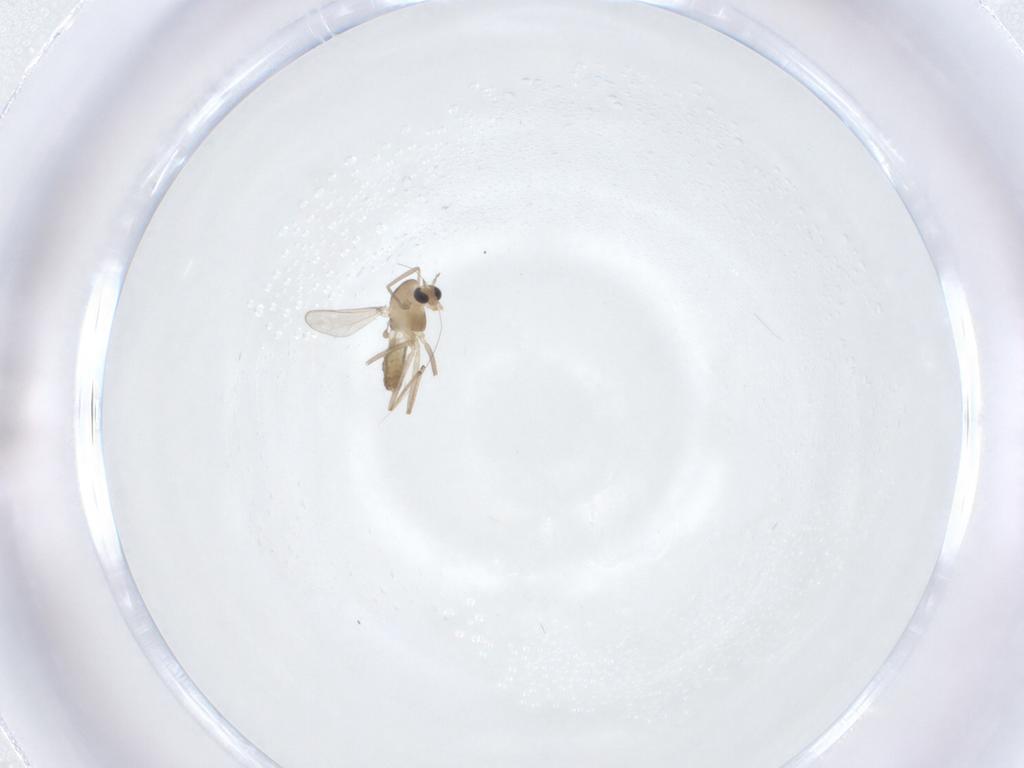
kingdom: Animalia
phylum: Arthropoda
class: Insecta
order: Diptera
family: Chironomidae
